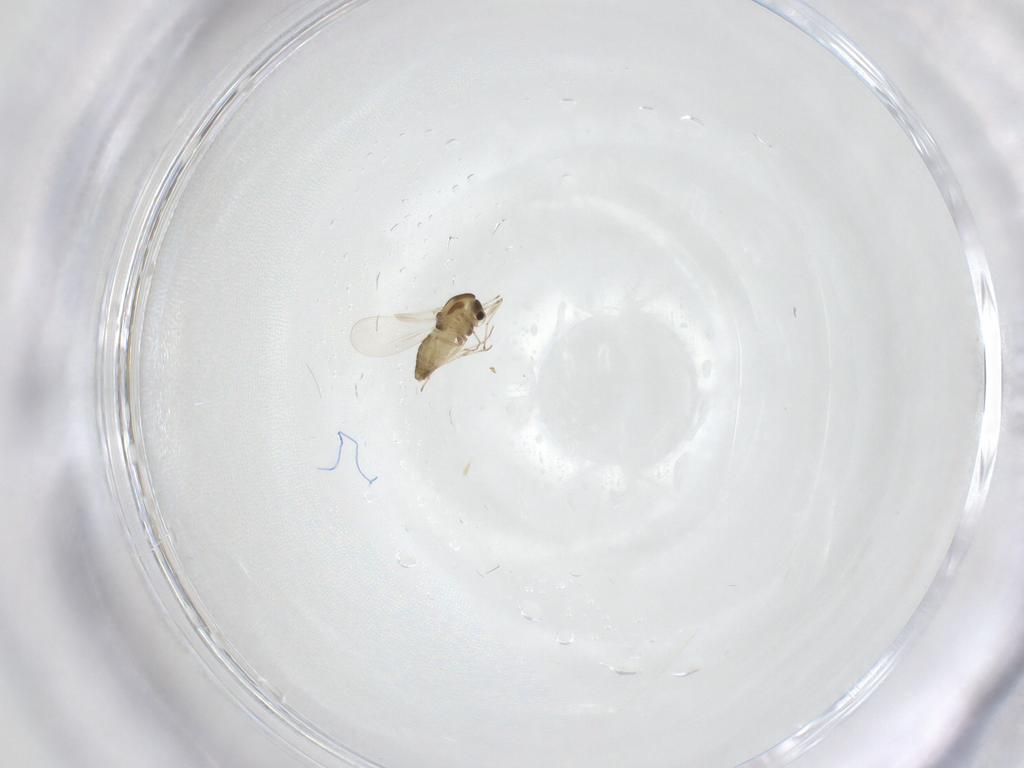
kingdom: Animalia
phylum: Arthropoda
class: Insecta
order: Diptera
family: Chironomidae
